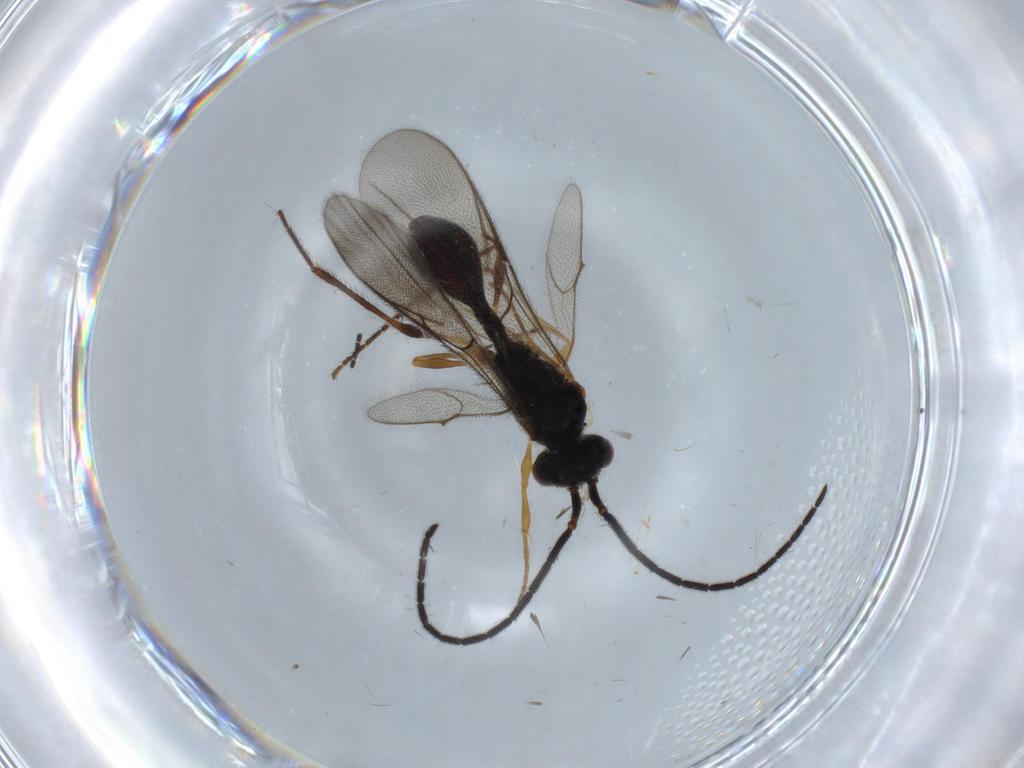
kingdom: Animalia
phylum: Arthropoda
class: Insecta
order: Hymenoptera
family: Diapriidae
